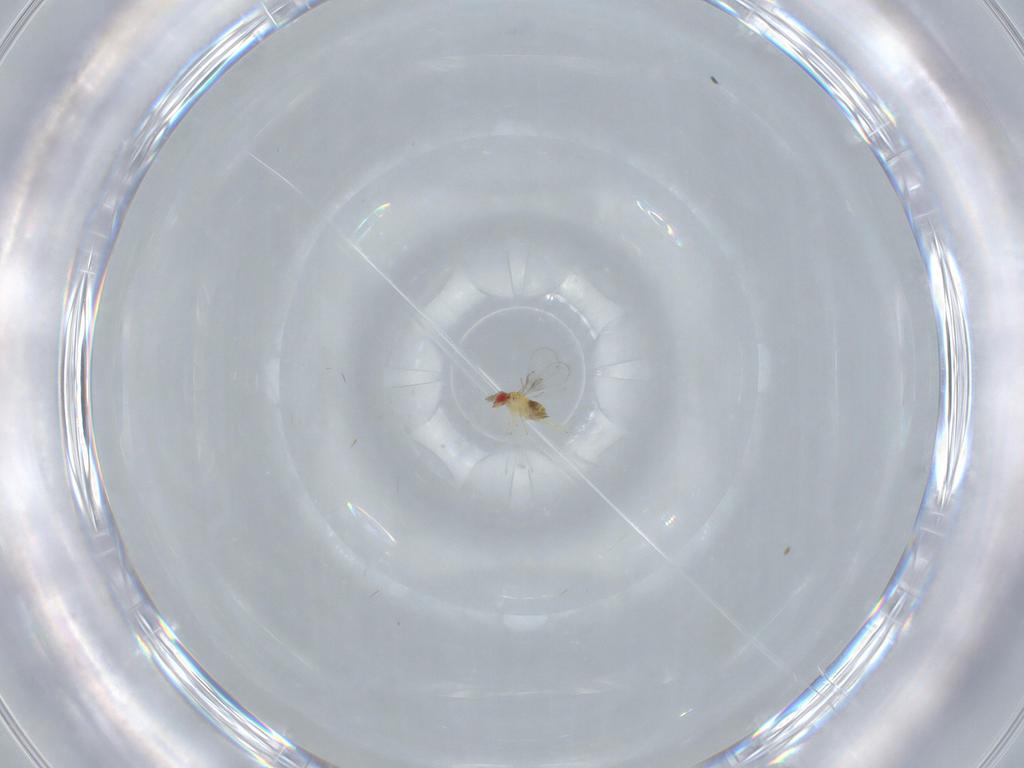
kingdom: Animalia
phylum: Arthropoda
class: Insecta
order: Hymenoptera
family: Trichogrammatidae
